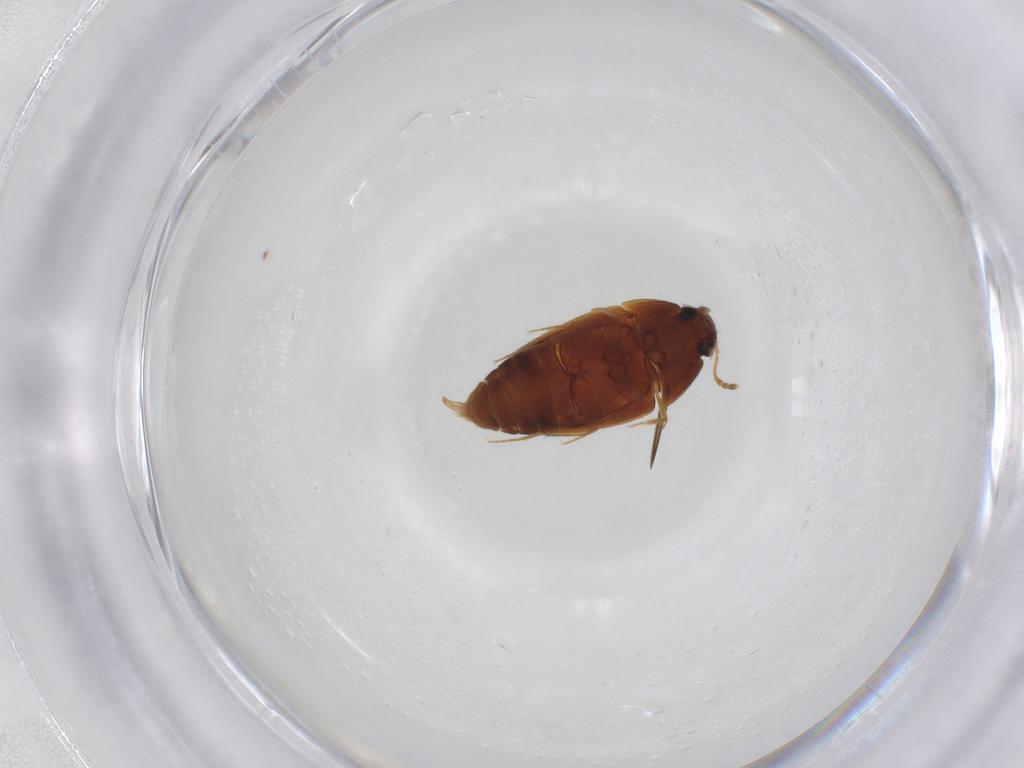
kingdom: Animalia
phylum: Arthropoda
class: Insecta
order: Coleoptera
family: Mycetophagidae
